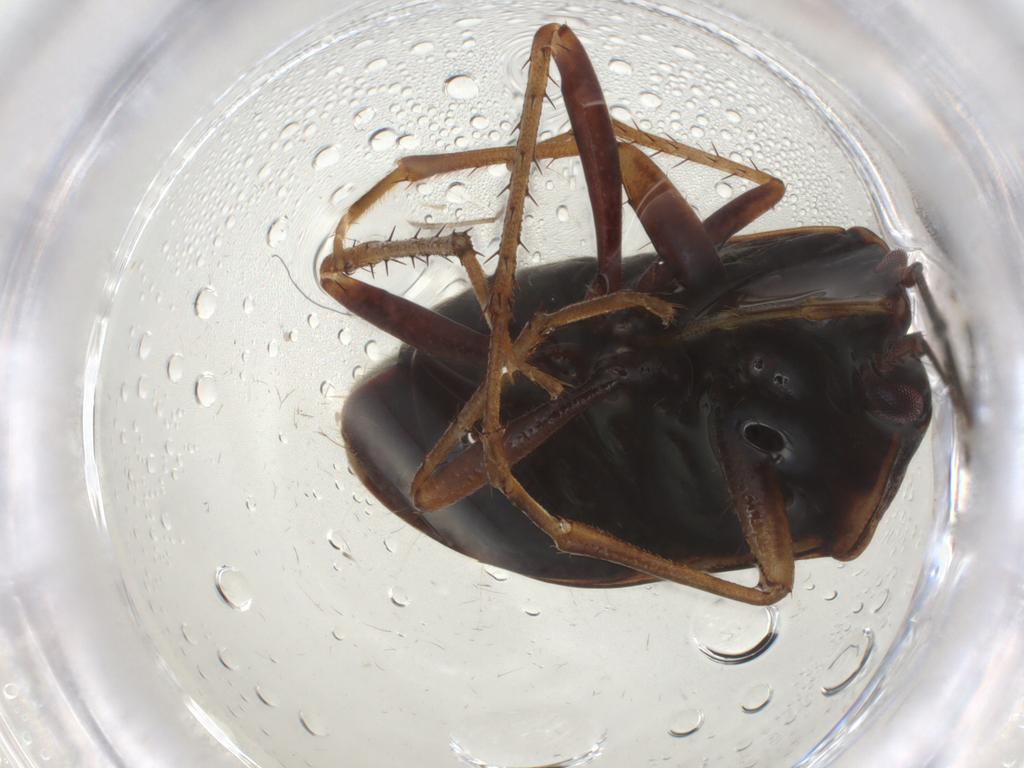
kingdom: Animalia
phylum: Arthropoda
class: Insecta
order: Hemiptera
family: Rhyparochromidae
